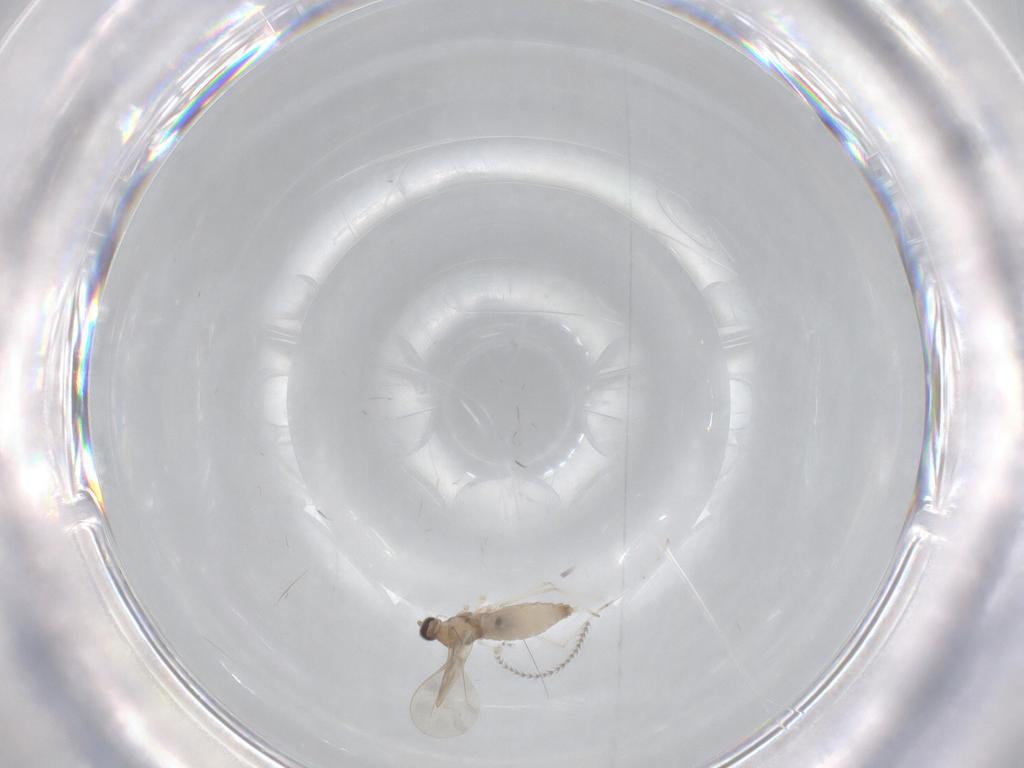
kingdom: Animalia
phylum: Arthropoda
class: Insecta
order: Diptera
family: Cecidomyiidae
